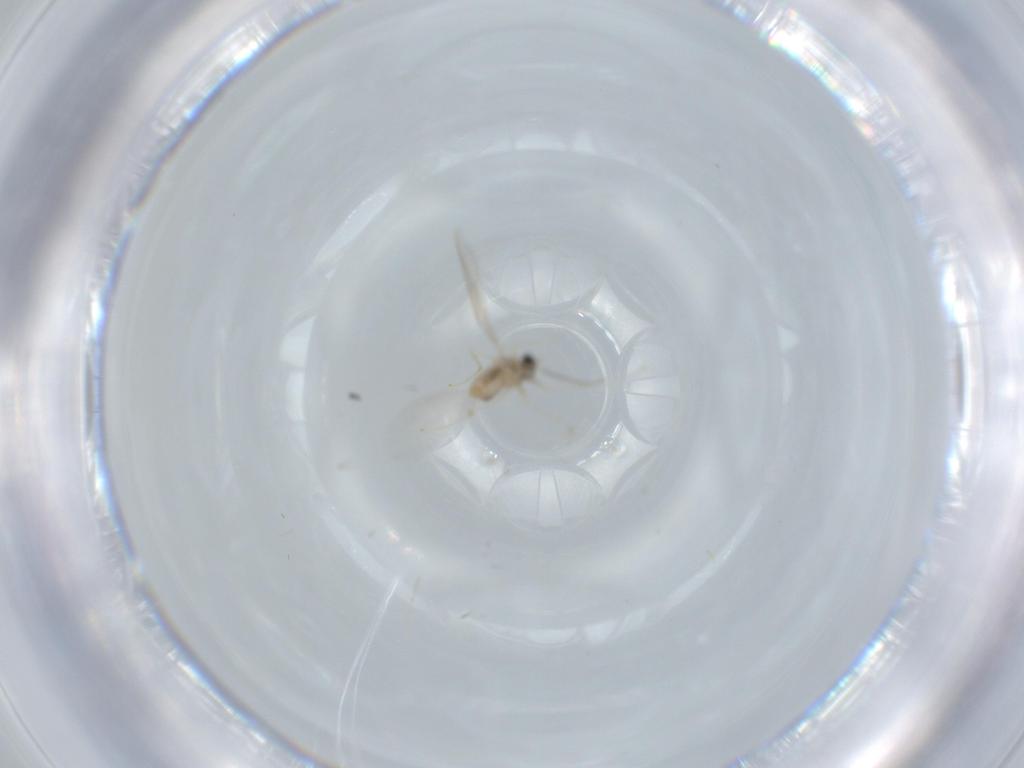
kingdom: Animalia
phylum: Arthropoda
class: Insecta
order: Diptera
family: Cecidomyiidae
